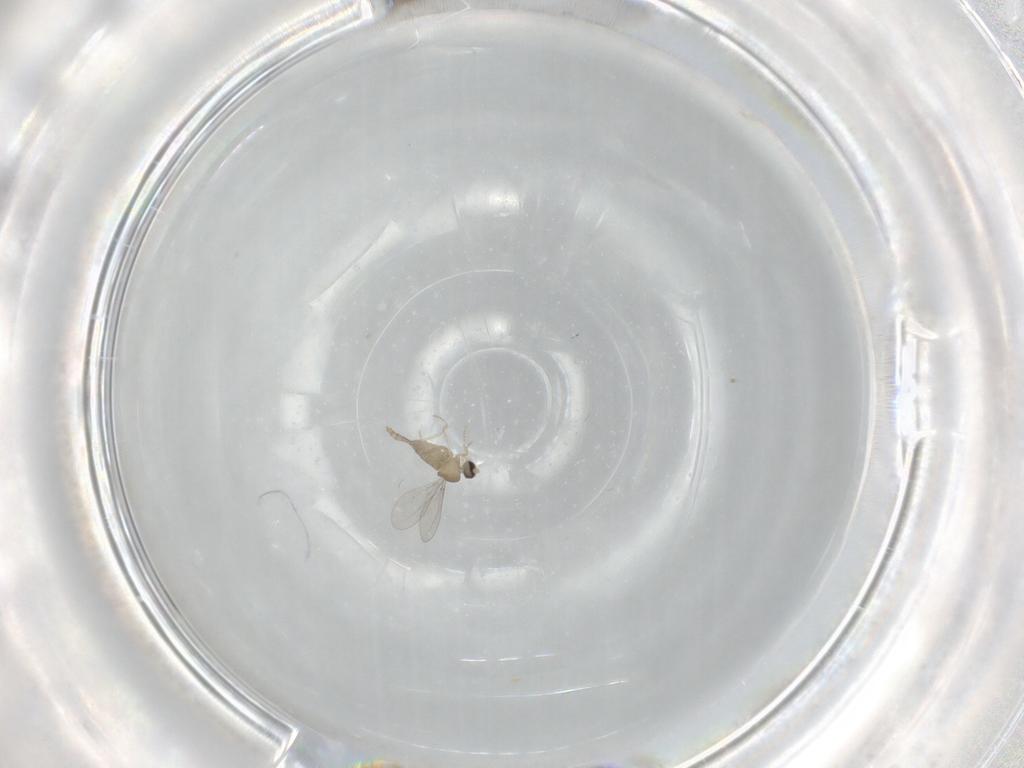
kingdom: Animalia
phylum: Arthropoda
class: Insecta
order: Diptera
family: Cecidomyiidae
